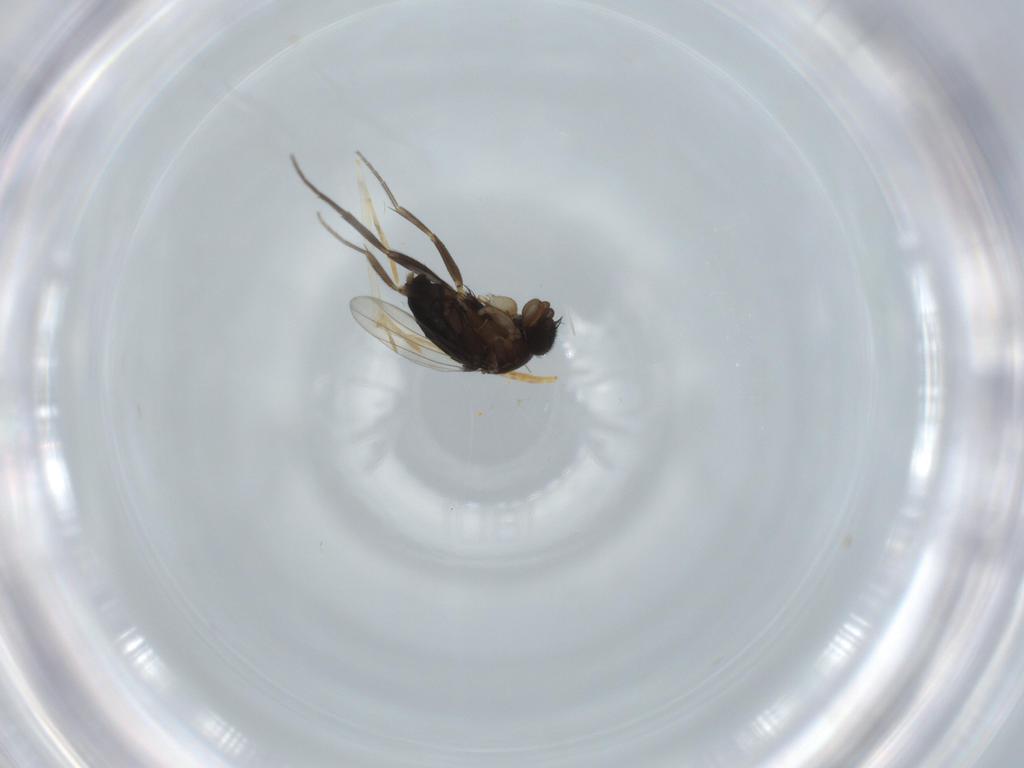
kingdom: Animalia
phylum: Arthropoda
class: Insecta
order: Diptera
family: Phoridae
